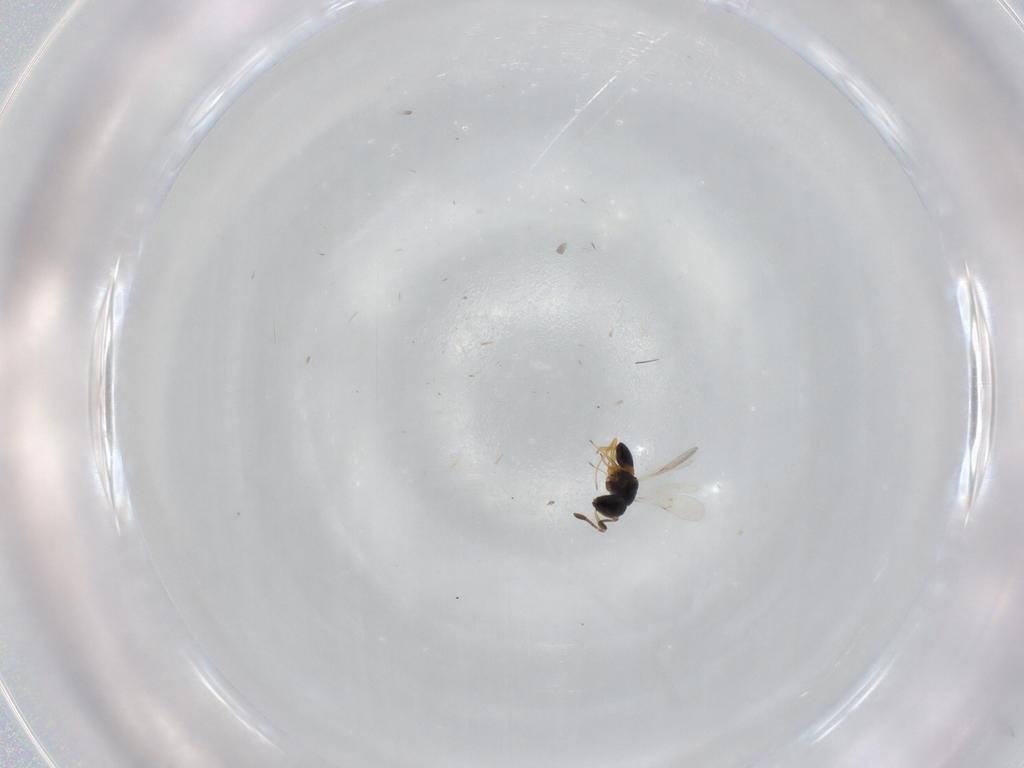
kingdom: Animalia
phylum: Arthropoda
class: Insecta
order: Hymenoptera
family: Scelionidae
